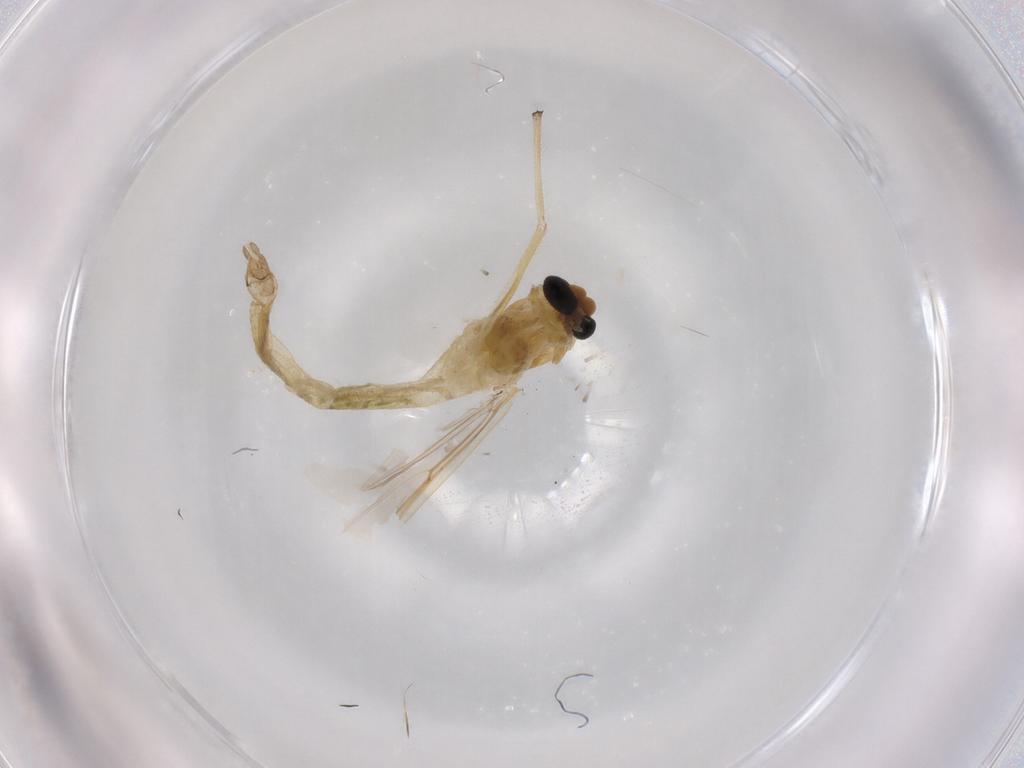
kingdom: Animalia
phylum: Arthropoda
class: Insecta
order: Diptera
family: Chironomidae
